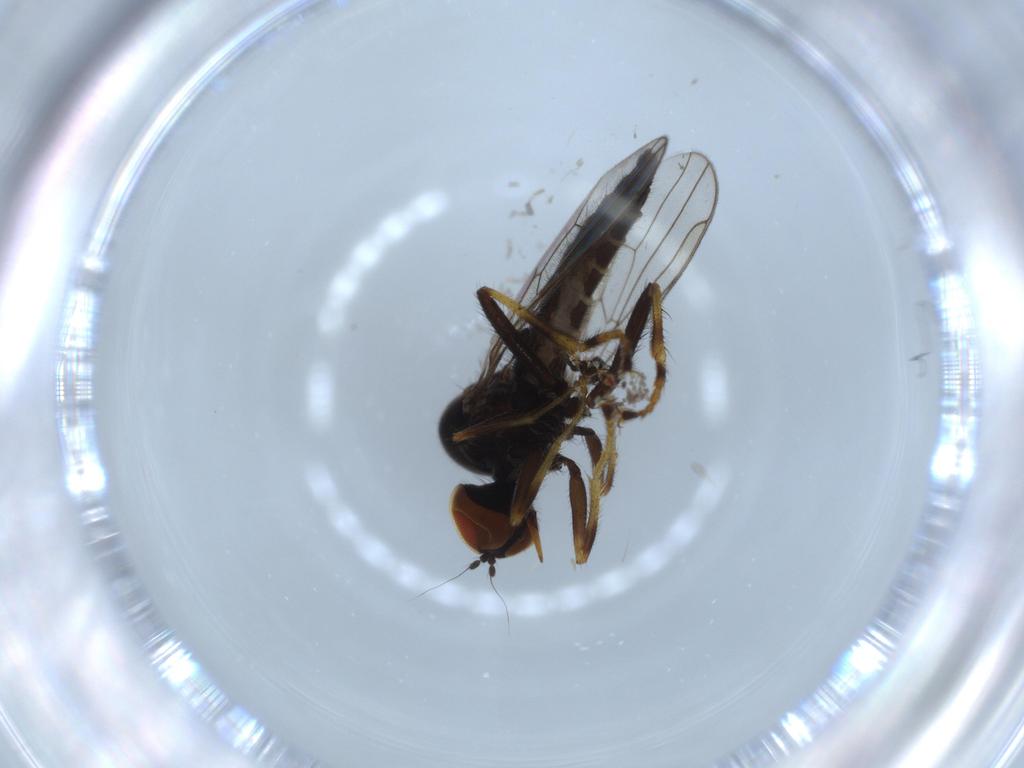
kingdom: Animalia
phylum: Arthropoda
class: Insecta
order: Diptera
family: Hybotidae
